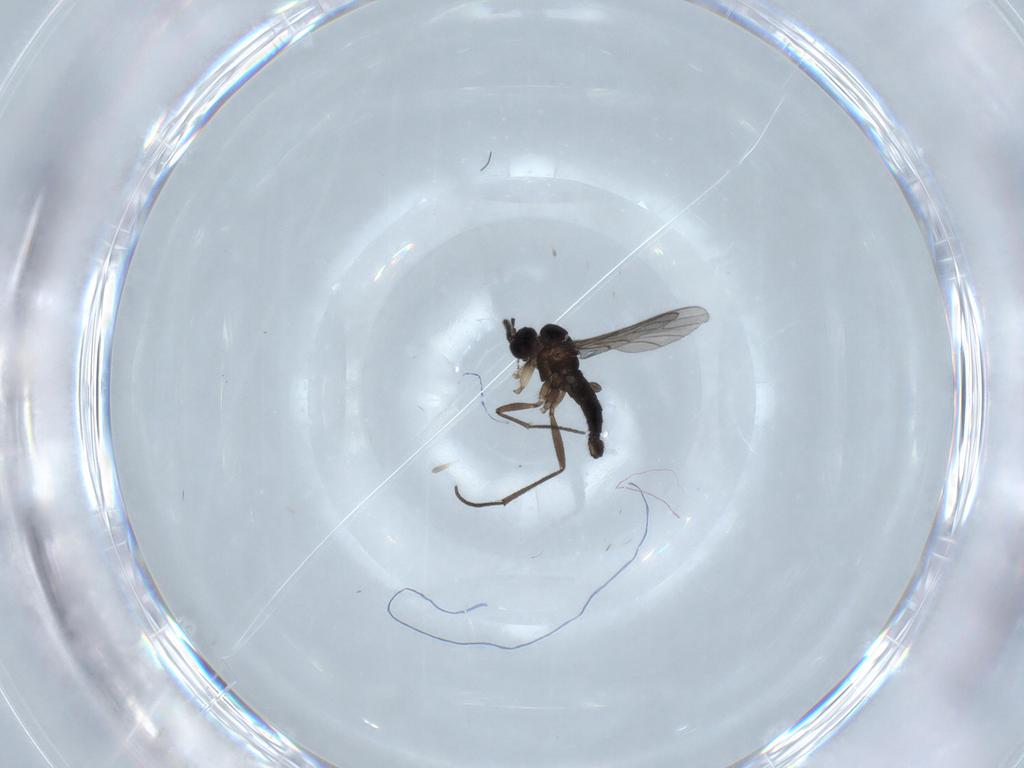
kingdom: Animalia
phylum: Arthropoda
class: Insecta
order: Diptera
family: Sciaridae
